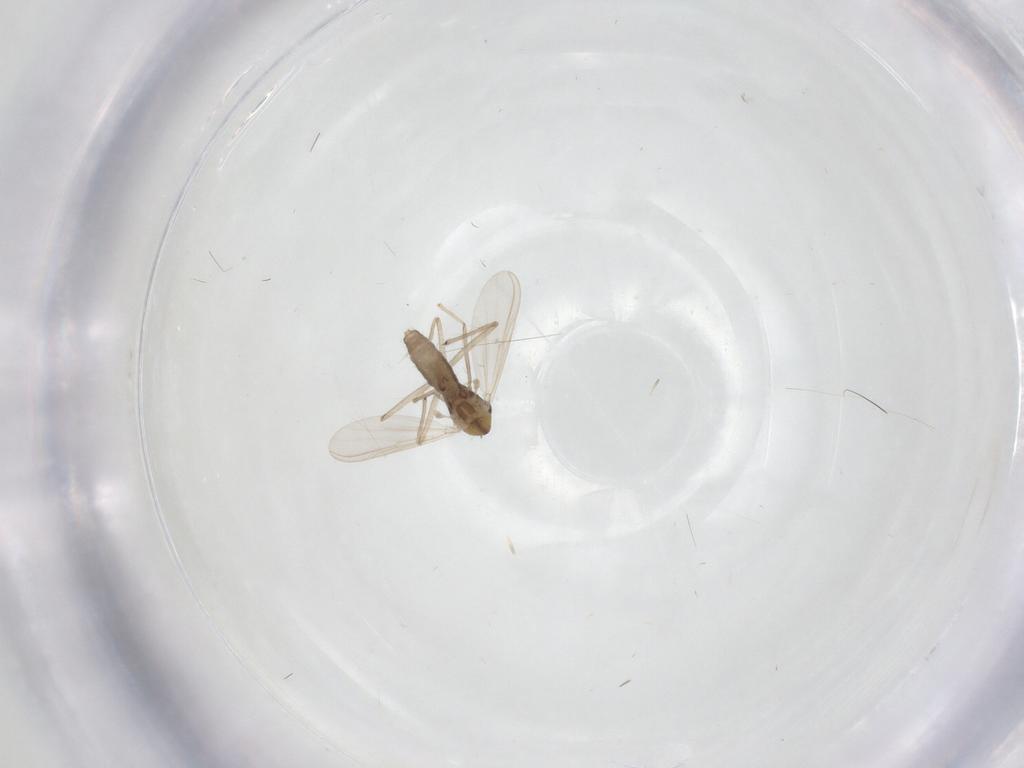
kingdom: Animalia
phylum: Arthropoda
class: Insecta
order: Diptera
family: Chironomidae
